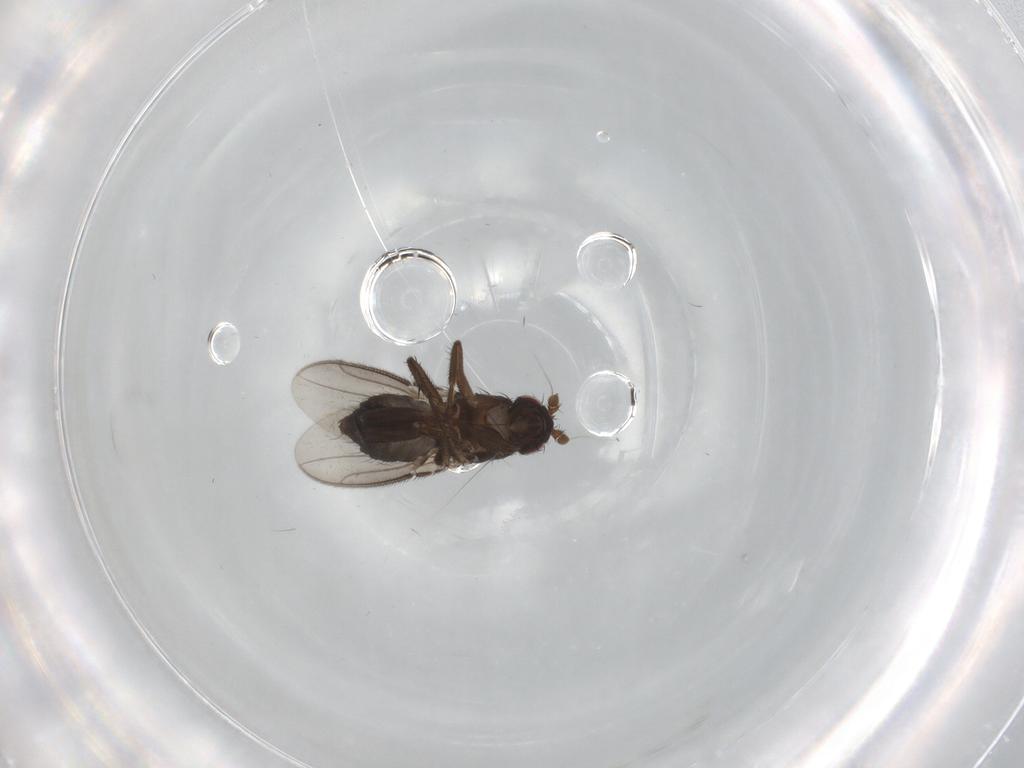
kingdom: Animalia
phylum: Arthropoda
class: Insecta
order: Diptera
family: Sphaeroceridae
